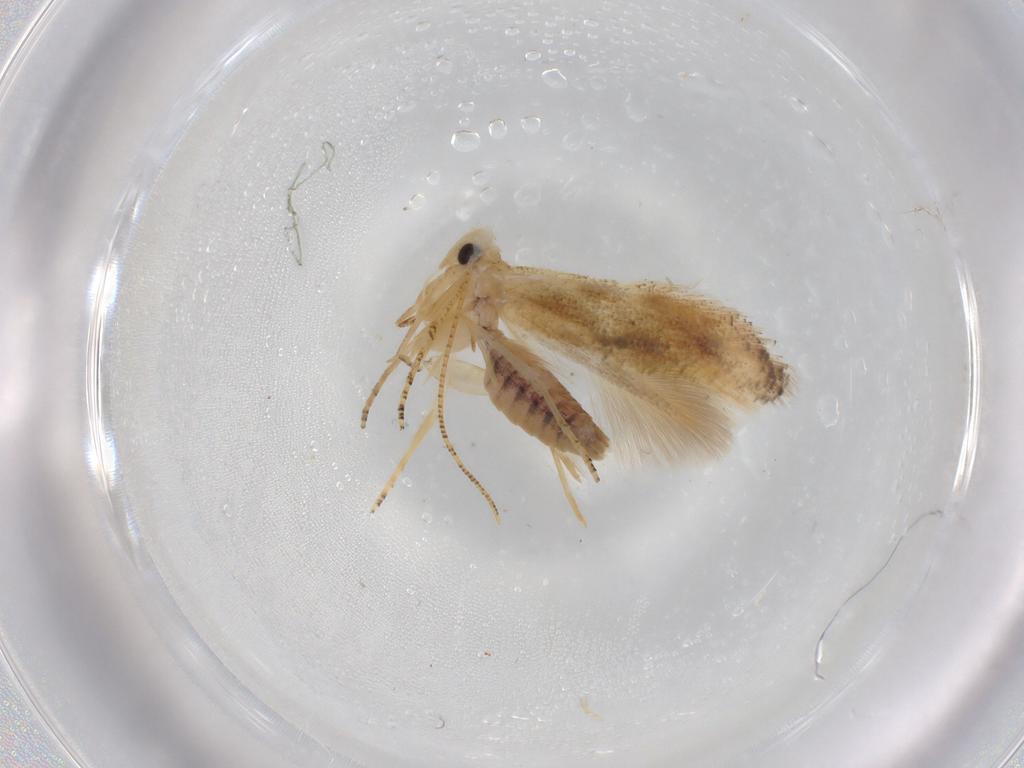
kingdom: Animalia
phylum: Arthropoda
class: Insecta
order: Lepidoptera
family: Bucculatricidae
